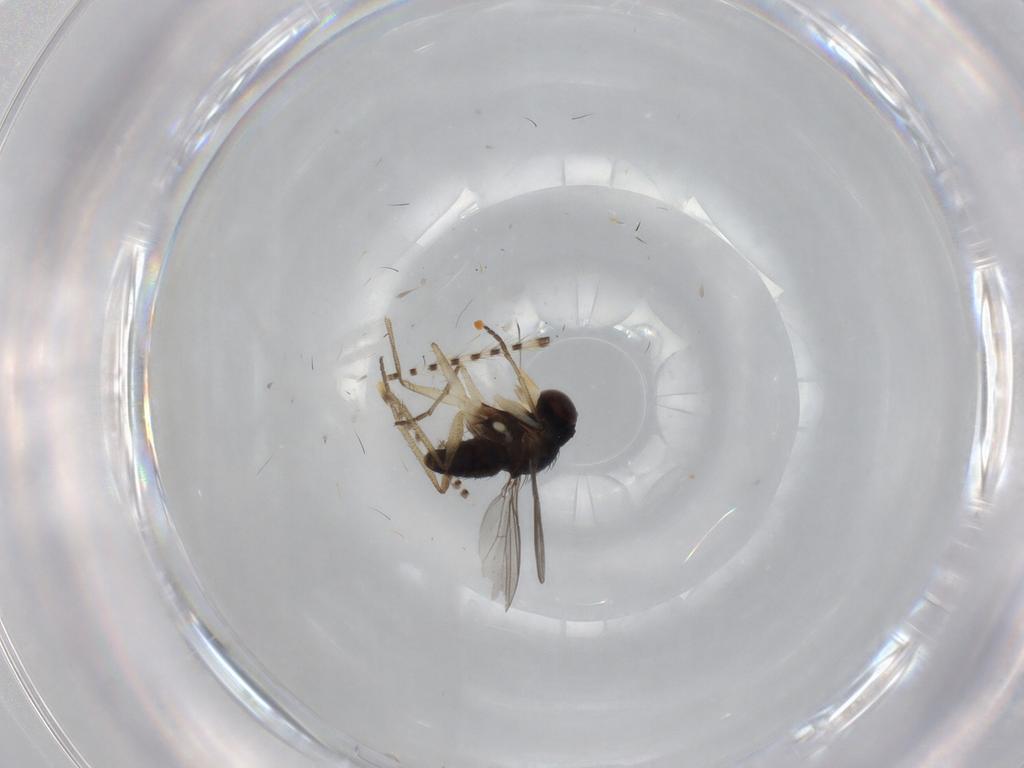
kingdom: Animalia
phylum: Arthropoda
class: Insecta
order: Diptera
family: Dolichopodidae
